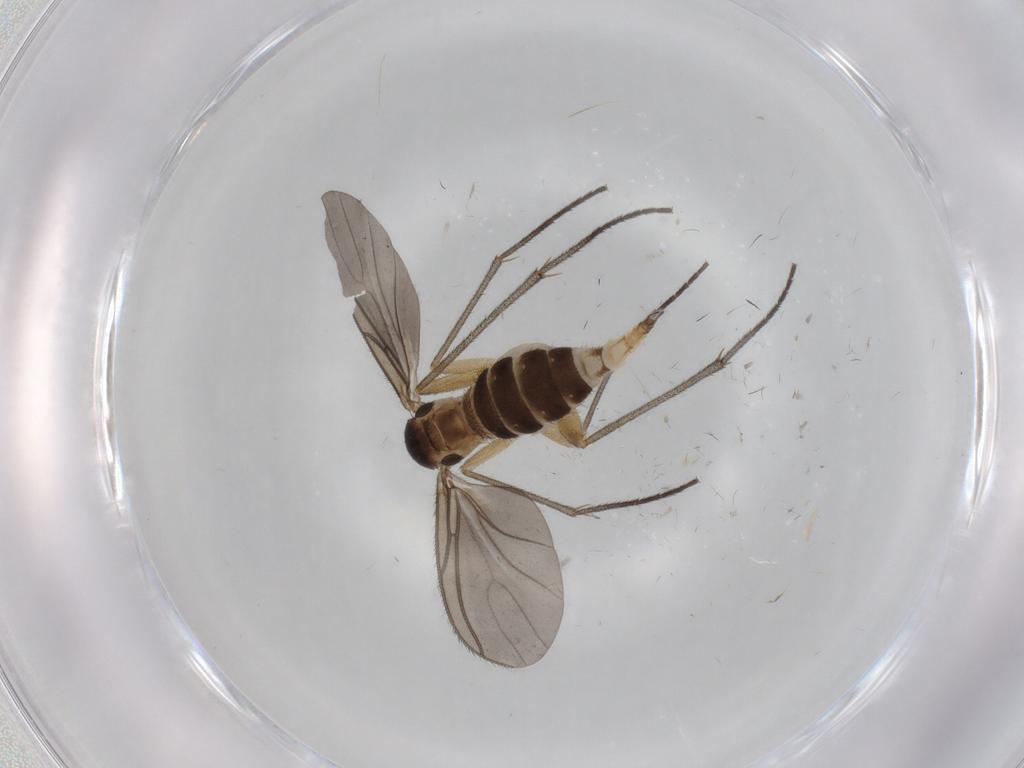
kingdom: Animalia
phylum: Arthropoda
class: Insecta
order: Diptera
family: Sciaridae
